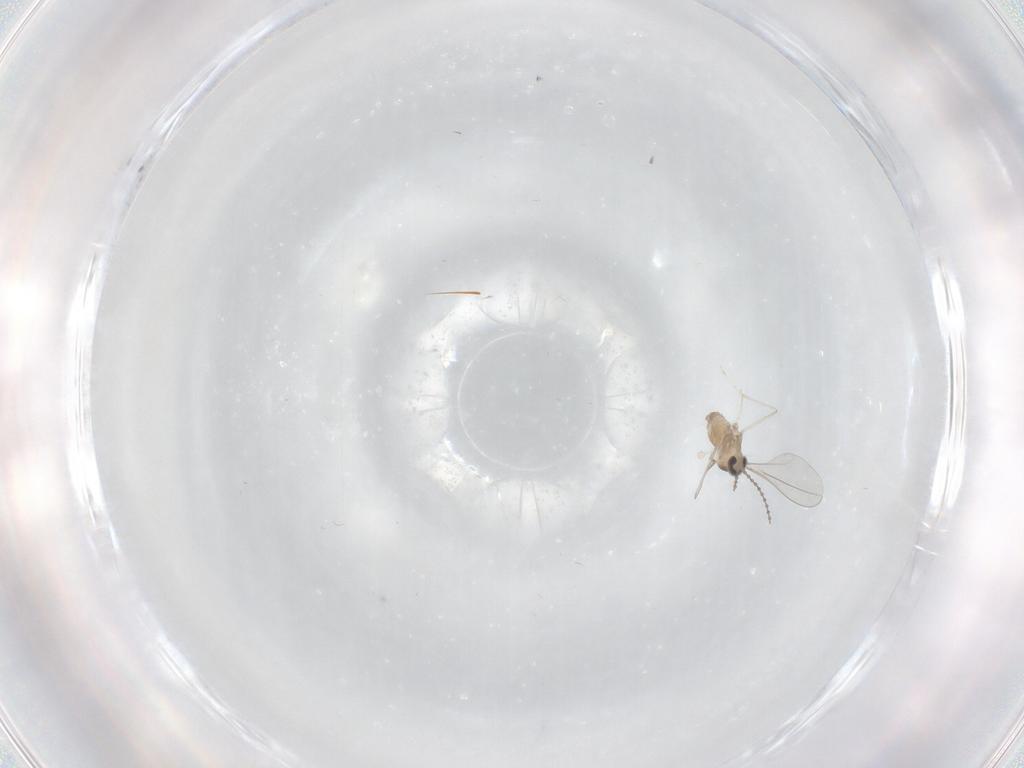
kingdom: Animalia
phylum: Arthropoda
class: Insecta
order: Diptera
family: Cecidomyiidae
